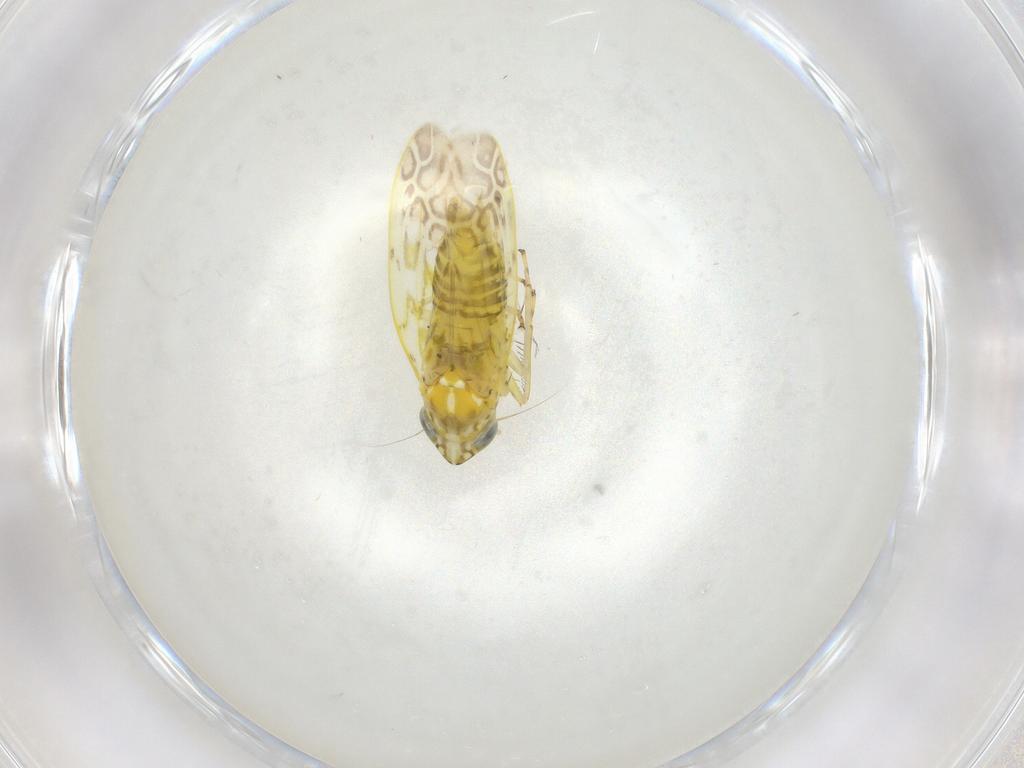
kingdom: Animalia
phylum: Arthropoda
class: Insecta
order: Hemiptera
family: Cicadellidae
